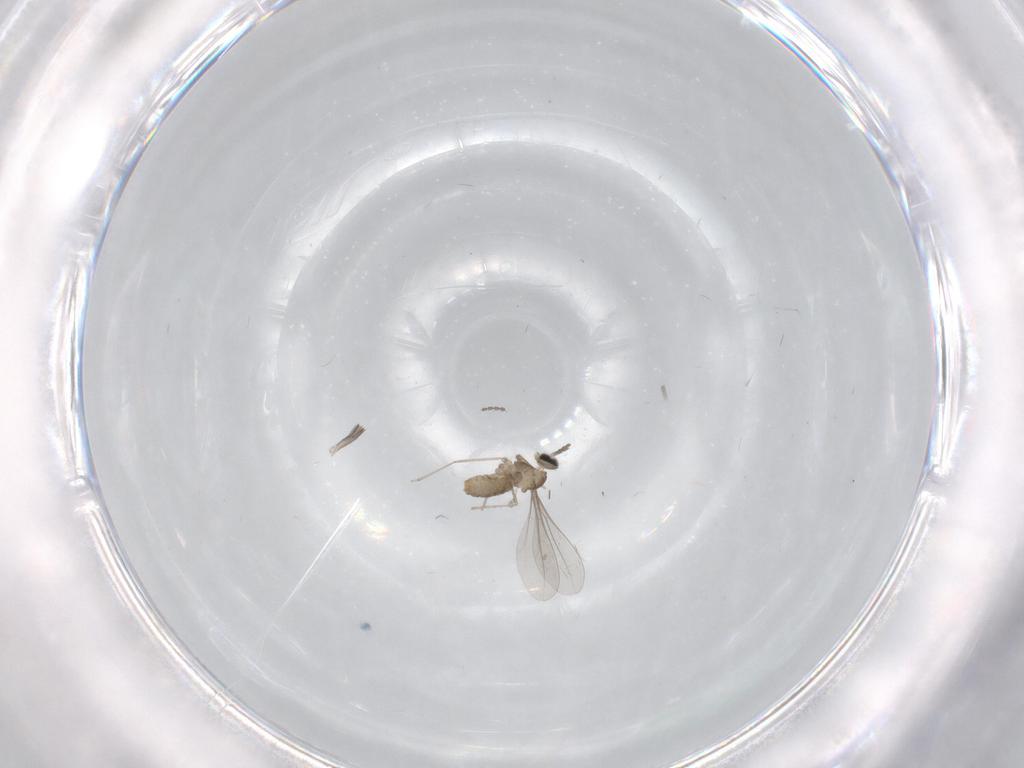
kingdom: Animalia
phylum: Arthropoda
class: Insecta
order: Diptera
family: Cecidomyiidae
